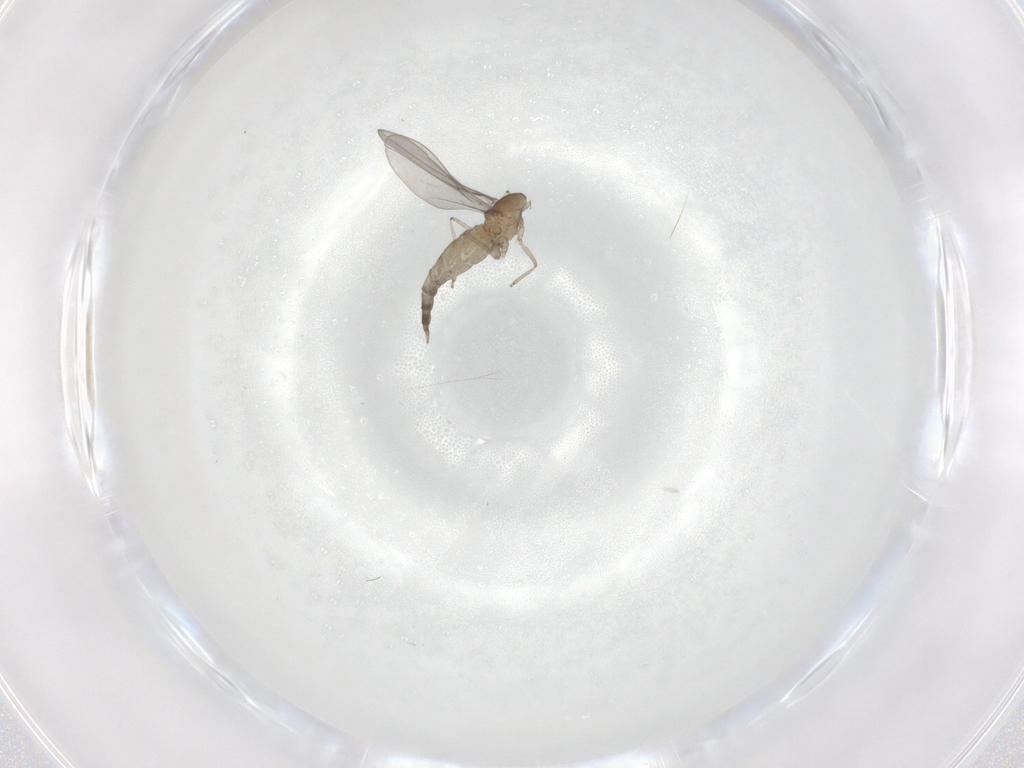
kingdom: Animalia
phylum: Arthropoda
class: Insecta
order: Diptera
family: Cecidomyiidae
